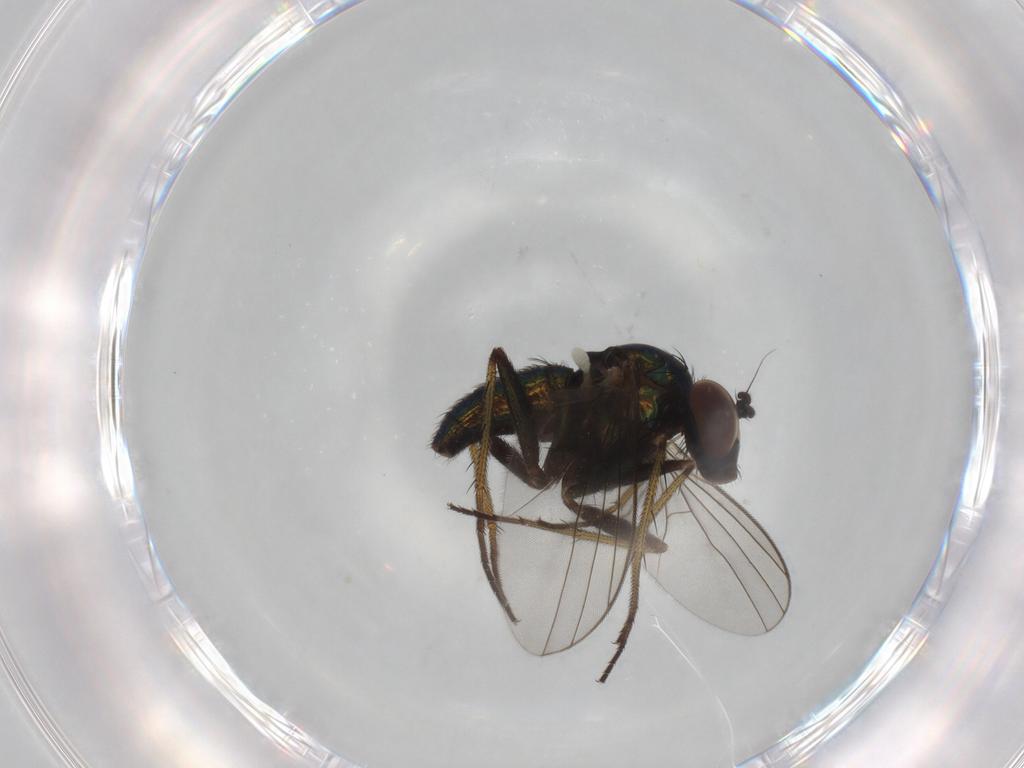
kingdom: Animalia
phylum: Arthropoda
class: Insecta
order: Diptera
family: Dolichopodidae
